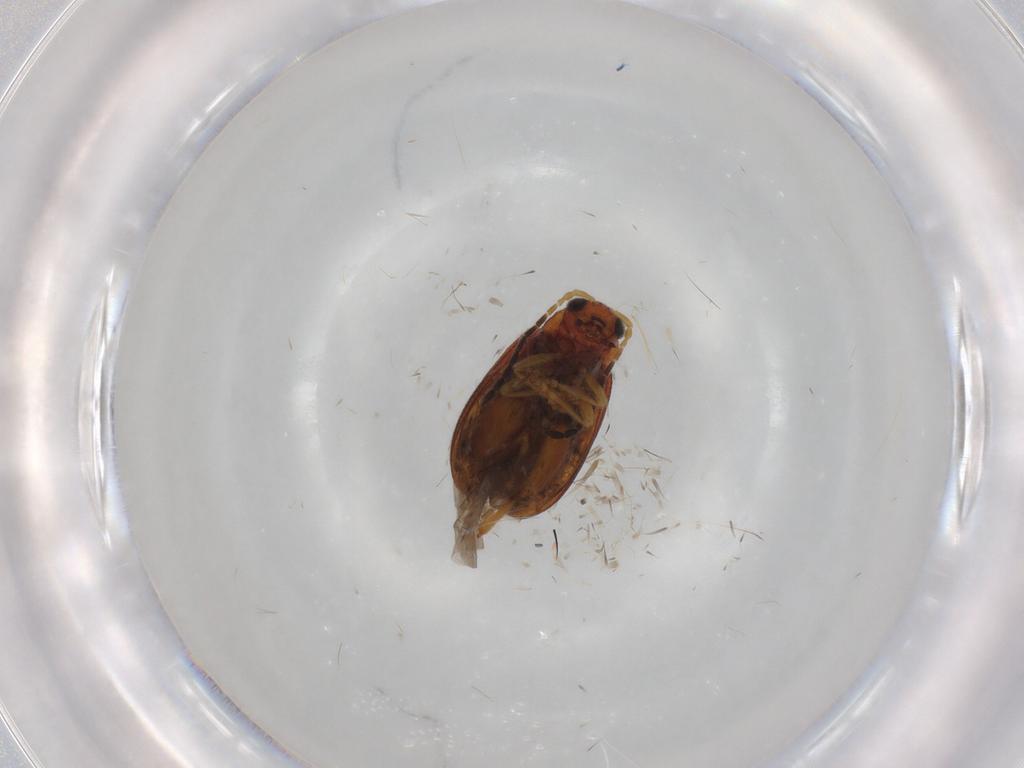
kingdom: Animalia
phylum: Arthropoda
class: Insecta
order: Coleoptera
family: Chrysomelidae
